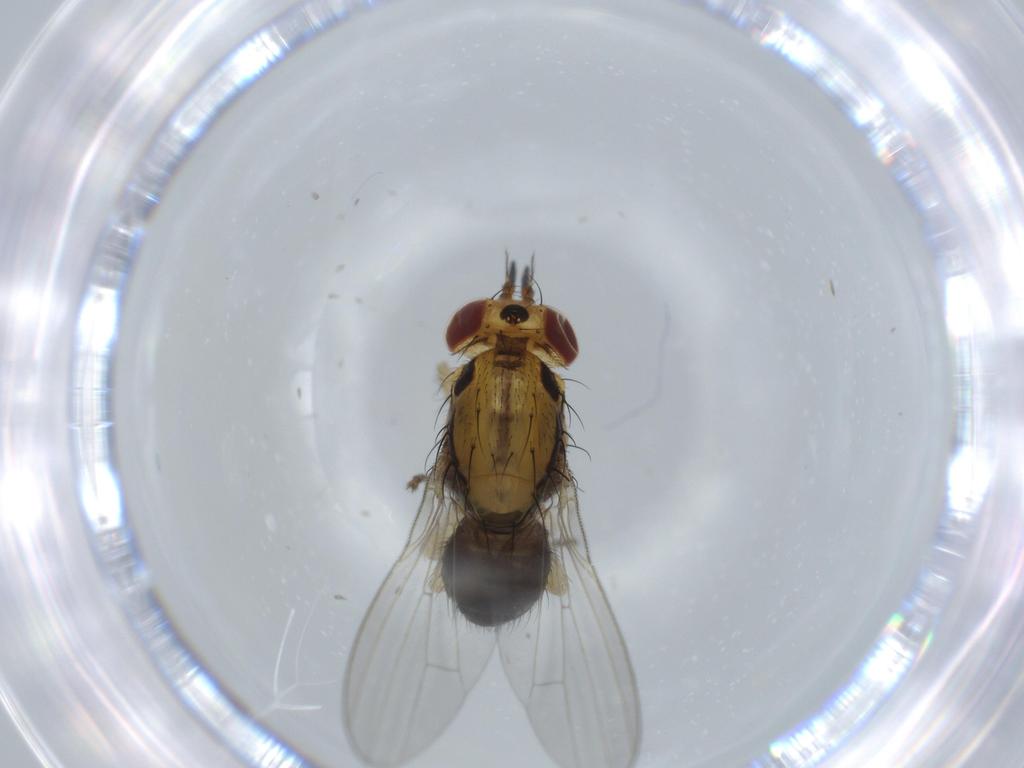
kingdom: Animalia
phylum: Arthropoda
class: Insecta
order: Diptera
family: Lauxaniidae
